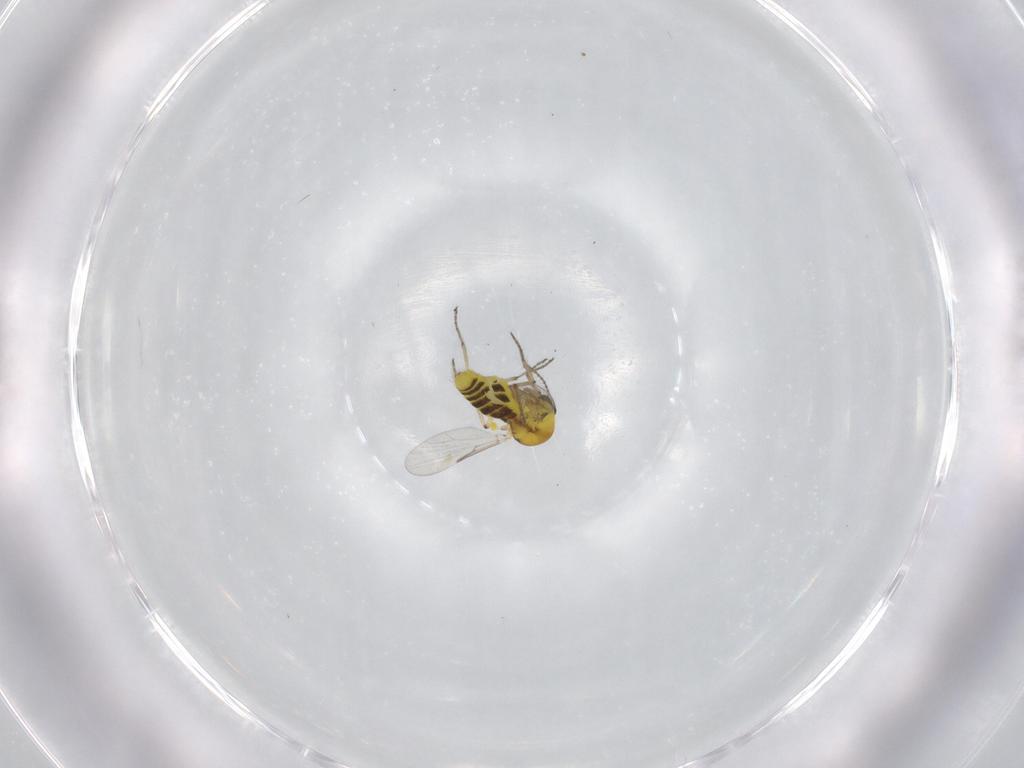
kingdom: Animalia
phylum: Arthropoda
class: Insecta
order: Diptera
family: Ceratopogonidae
